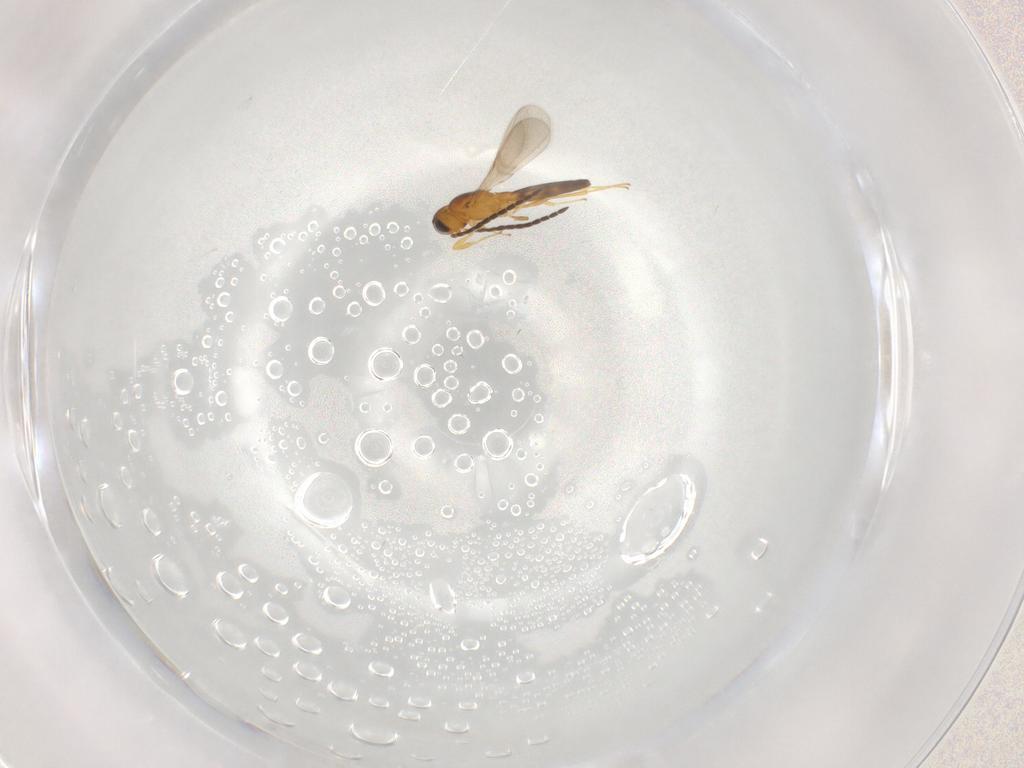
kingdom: Animalia
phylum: Arthropoda
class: Insecta
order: Hymenoptera
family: Scelionidae
